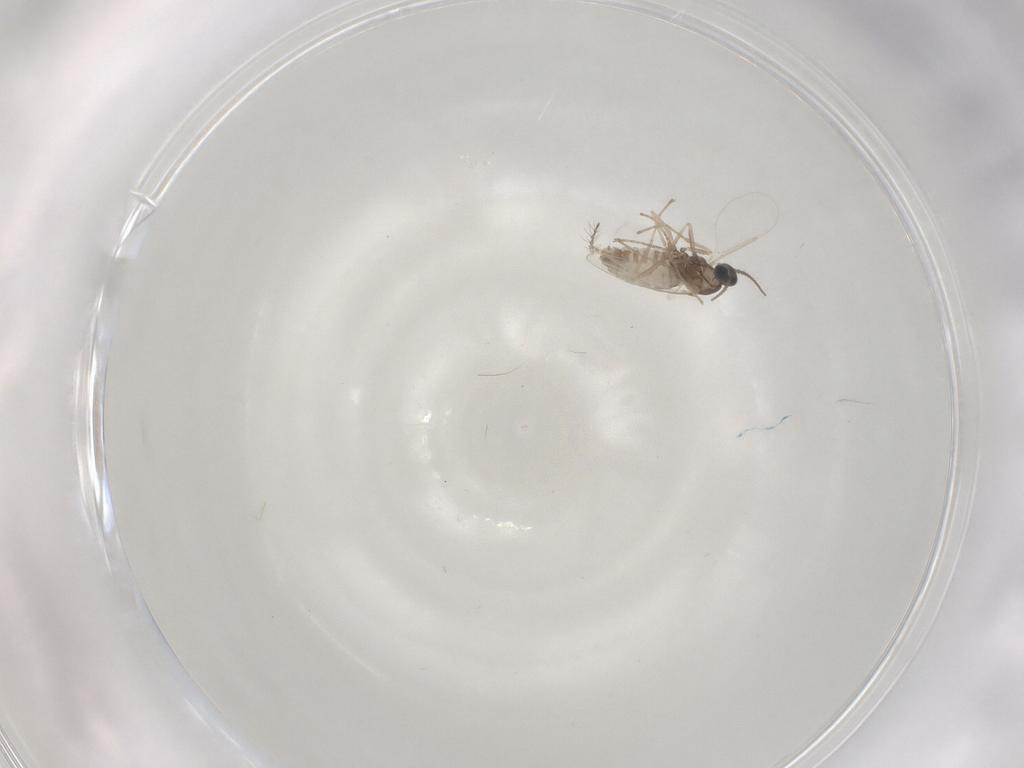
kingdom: Animalia
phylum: Arthropoda
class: Insecta
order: Diptera
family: Cecidomyiidae
